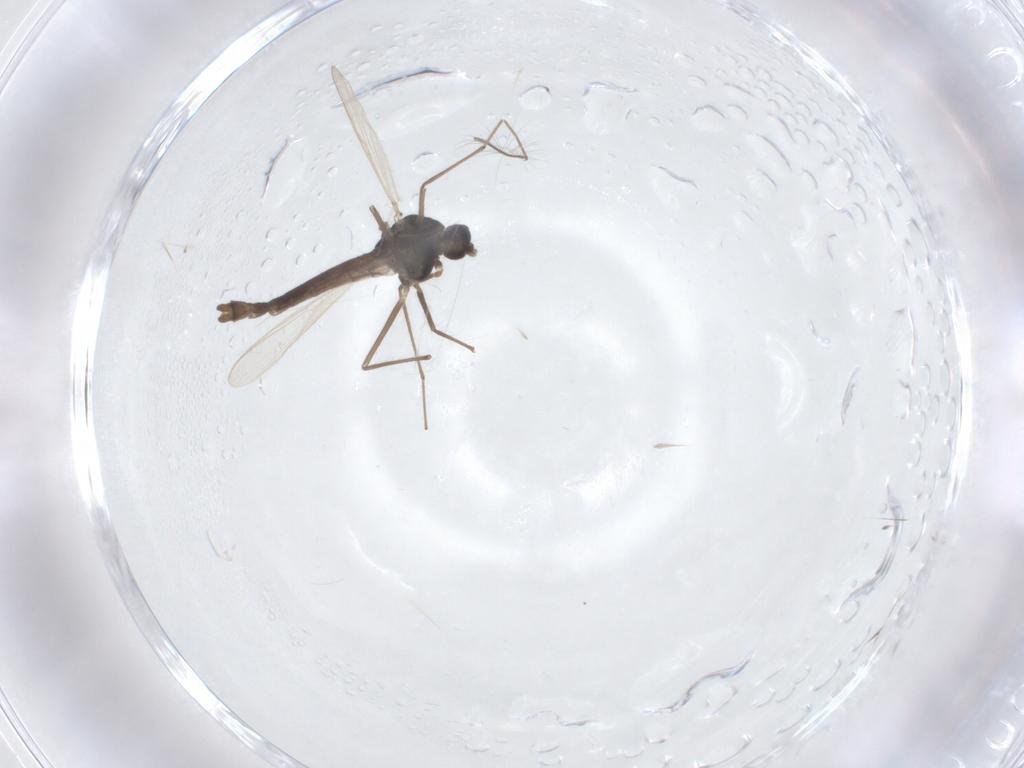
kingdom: Animalia
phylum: Arthropoda
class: Insecta
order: Diptera
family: Chironomidae
